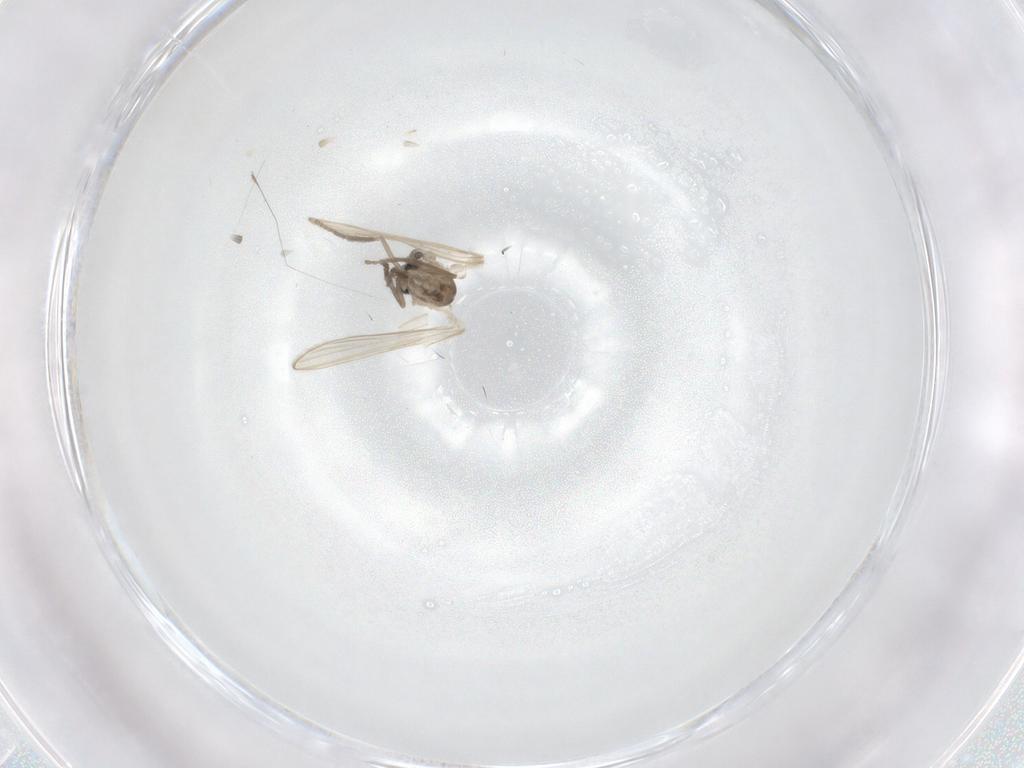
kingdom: Animalia
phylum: Arthropoda
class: Insecta
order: Diptera
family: Psychodidae
